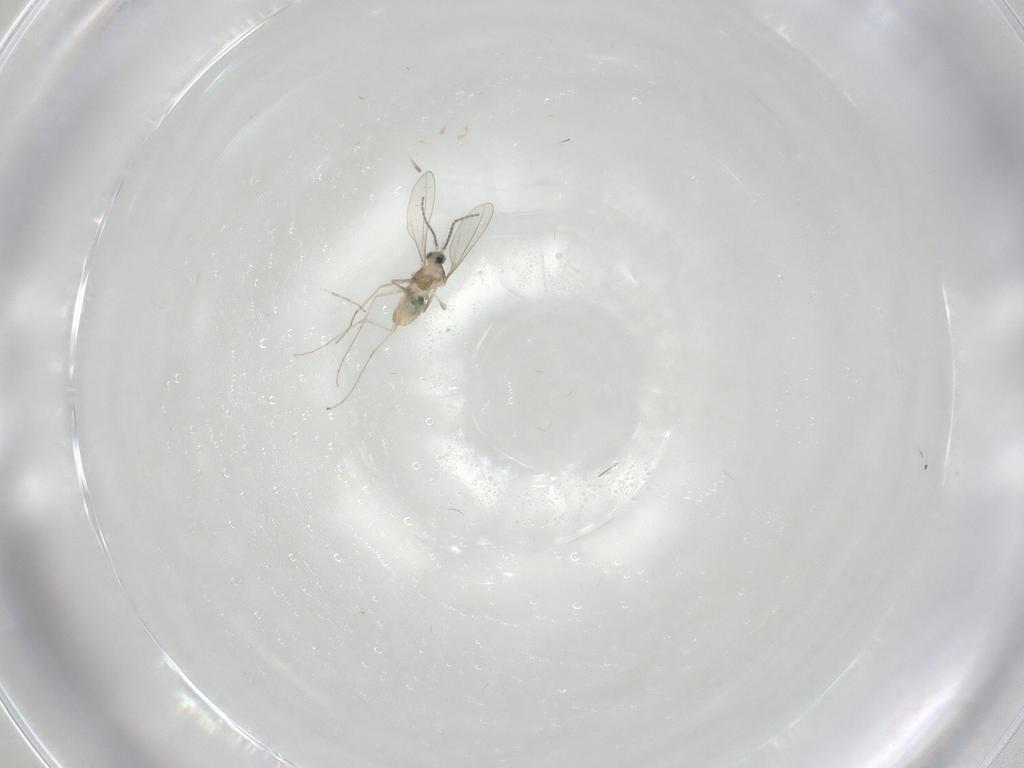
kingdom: Animalia
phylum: Arthropoda
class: Insecta
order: Diptera
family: Cecidomyiidae
